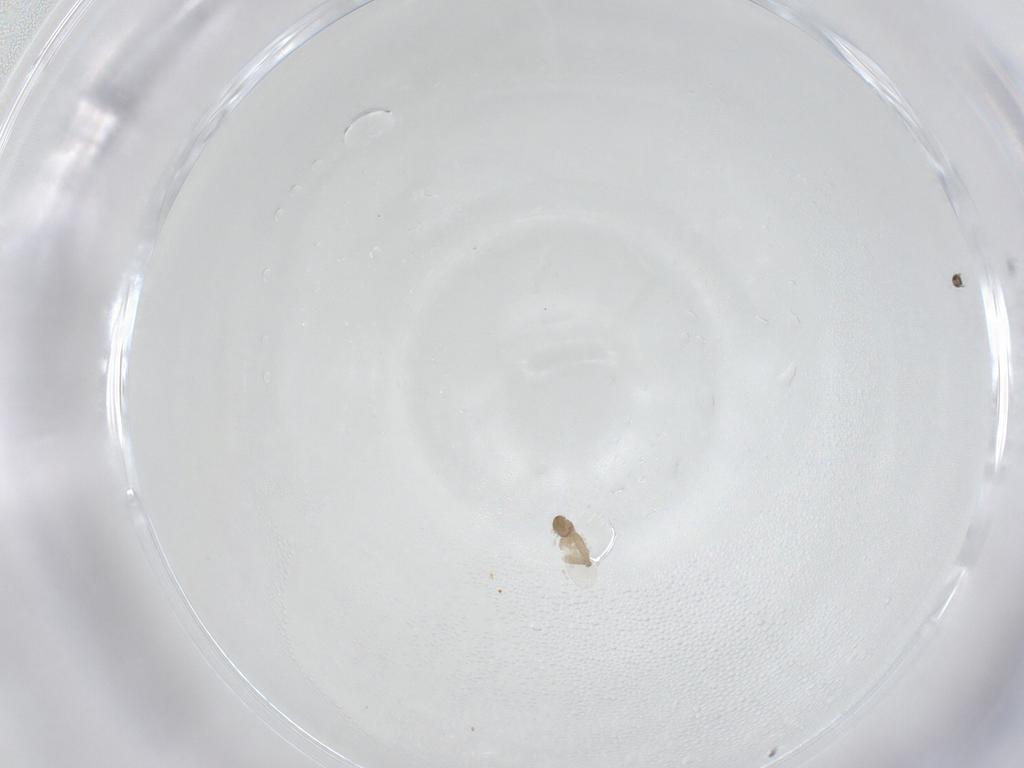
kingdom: Animalia
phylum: Arthropoda
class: Insecta
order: Diptera
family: Cecidomyiidae
